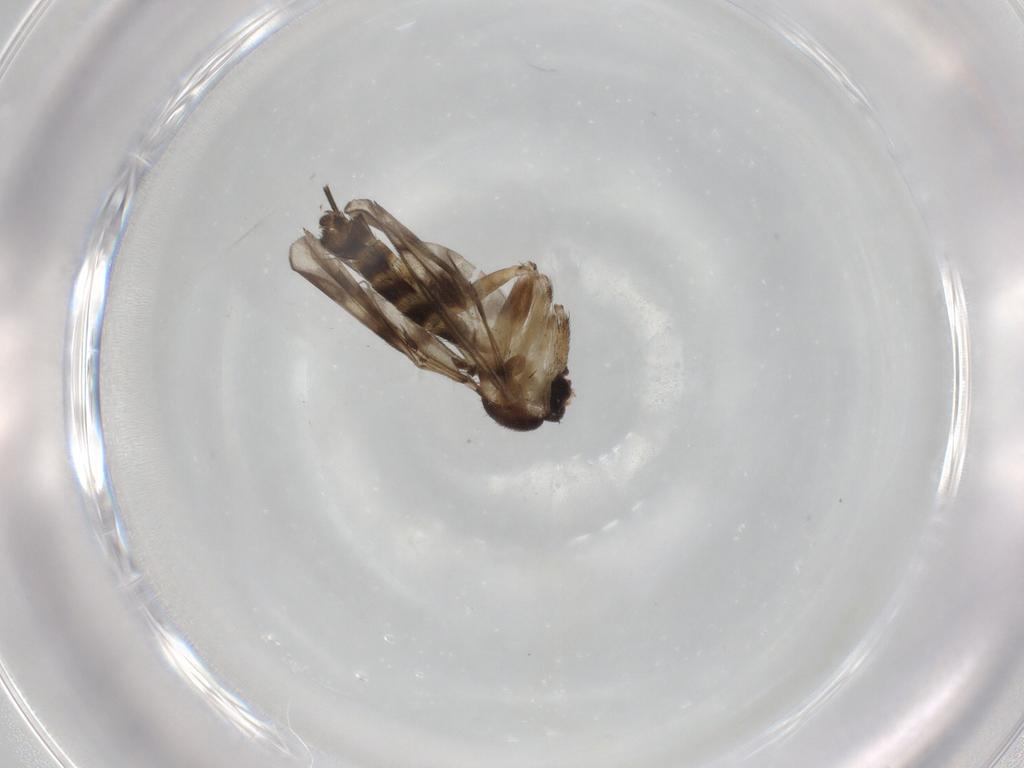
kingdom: Animalia
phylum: Arthropoda
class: Insecta
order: Diptera
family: Keroplatidae
